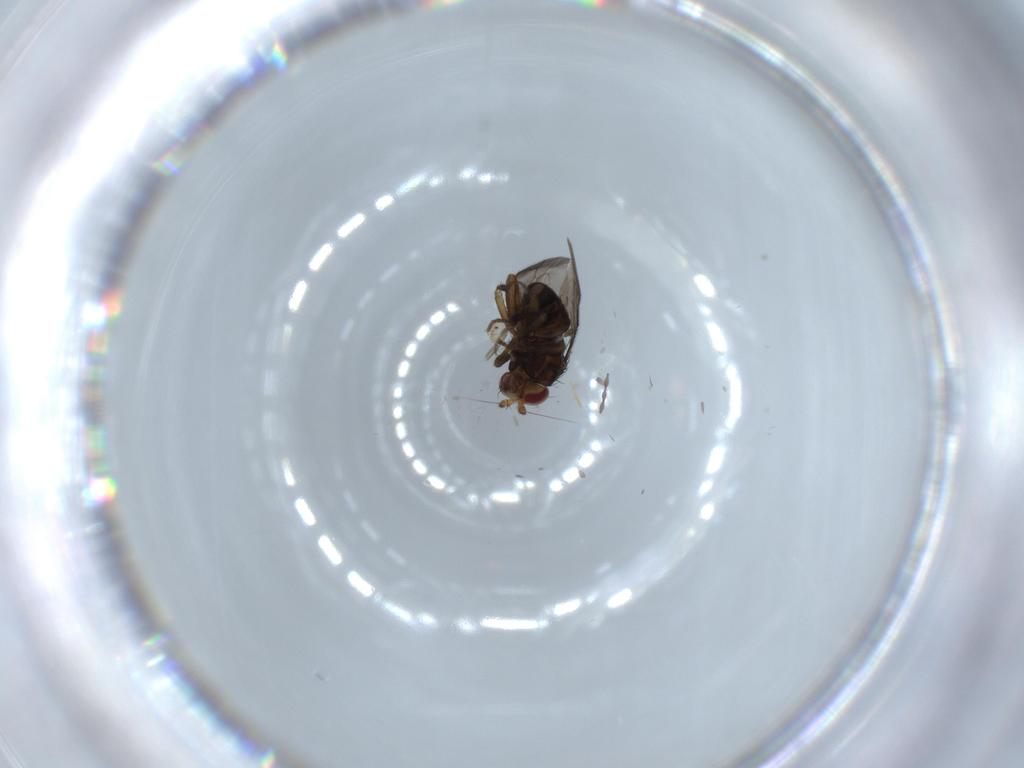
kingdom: Animalia
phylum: Arthropoda
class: Insecta
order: Diptera
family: Sphaeroceridae
